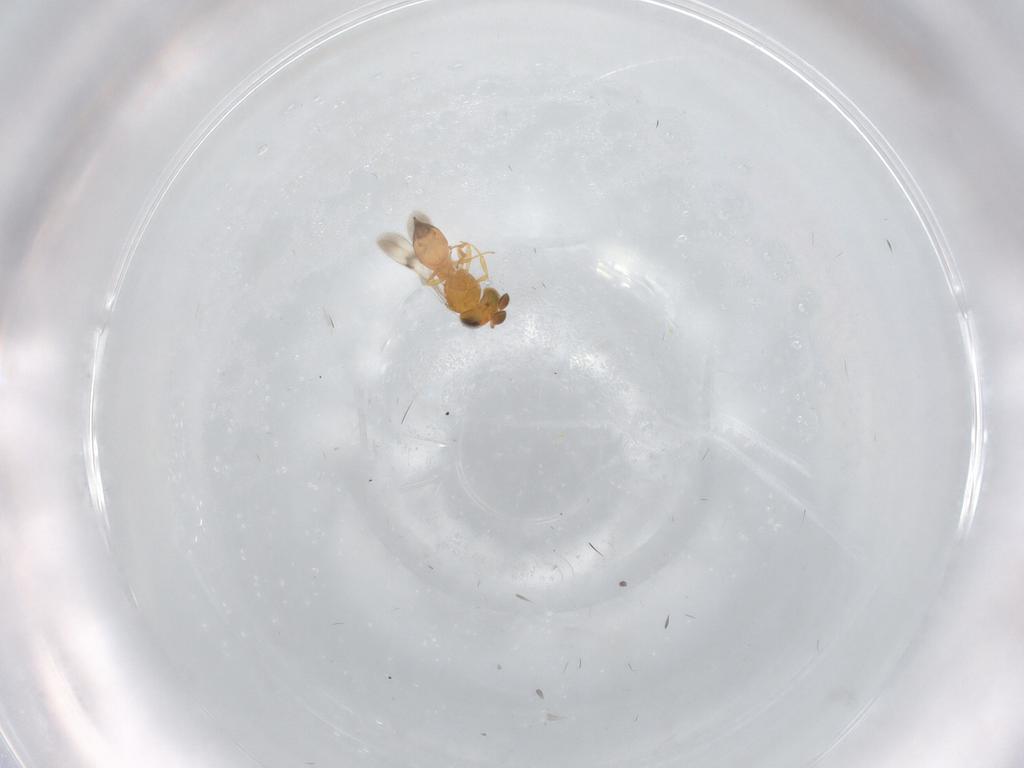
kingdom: Animalia
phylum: Arthropoda
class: Insecta
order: Hymenoptera
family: Scelionidae
